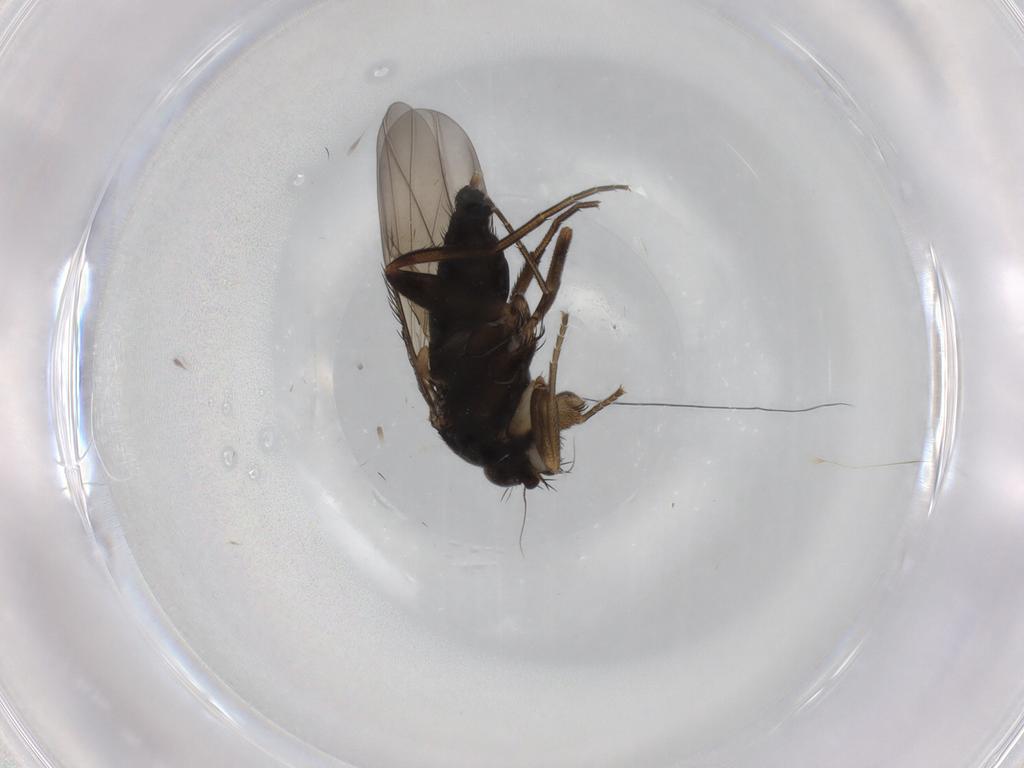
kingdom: Animalia
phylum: Arthropoda
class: Insecta
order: Diptera
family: Phoridae
